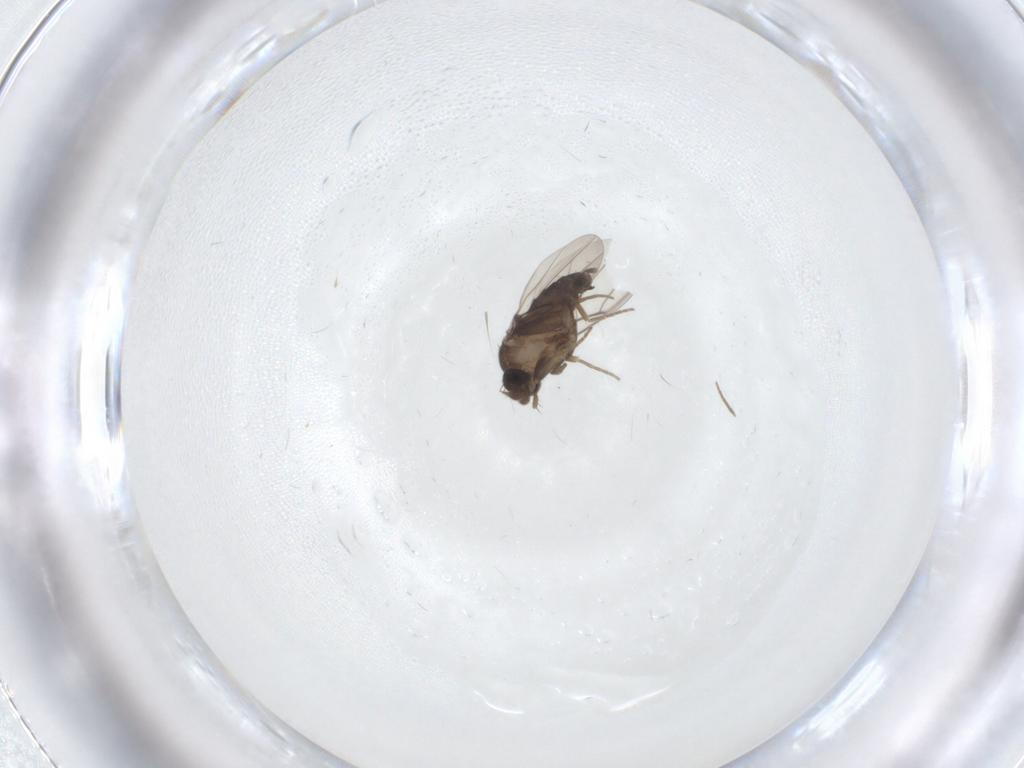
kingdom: Animalia
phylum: Arthropoda
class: Insecta
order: Diptera
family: Phoridae
